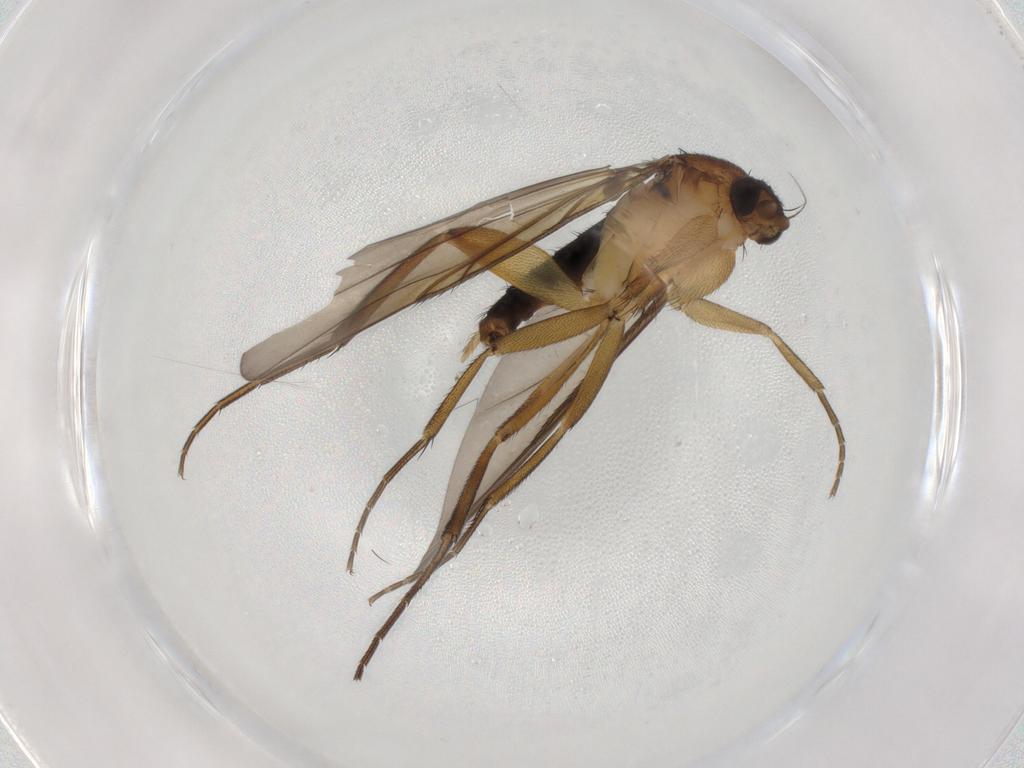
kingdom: Animalia
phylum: Arthropoda
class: Insecta
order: Diptera
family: Phoridae
